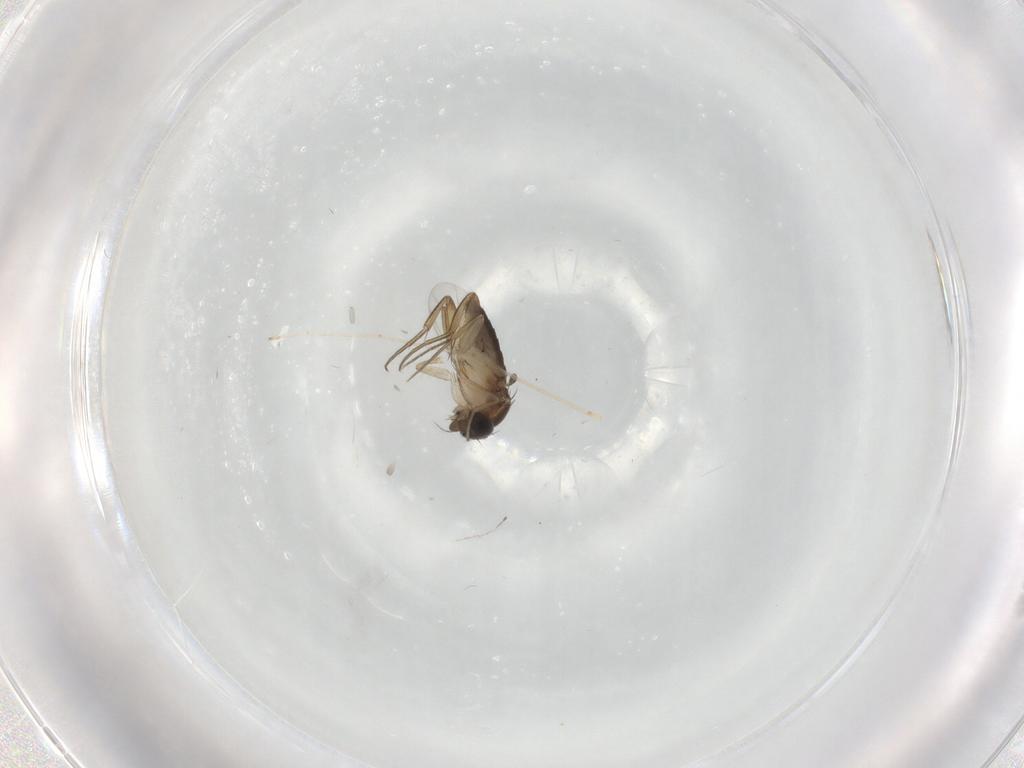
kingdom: Animalia
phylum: Arthropoda
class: Insecta
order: Diptera
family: Phoridae
